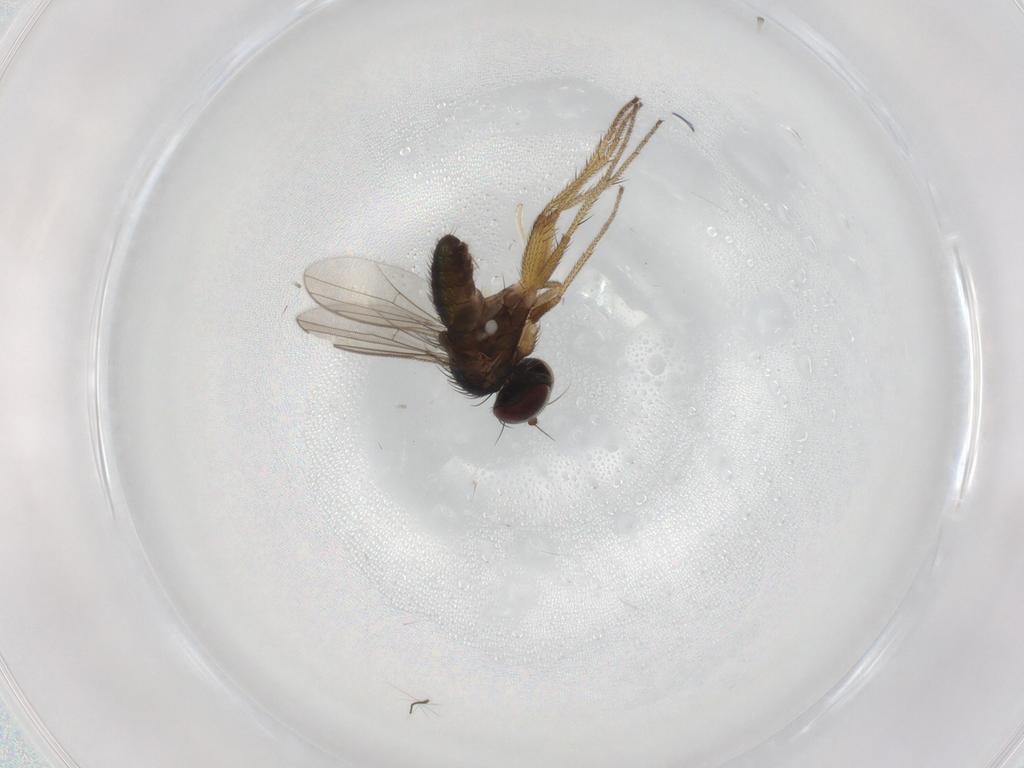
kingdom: Animalia
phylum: Arthropoda
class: Insecta
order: Diptera
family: Chironomidae
